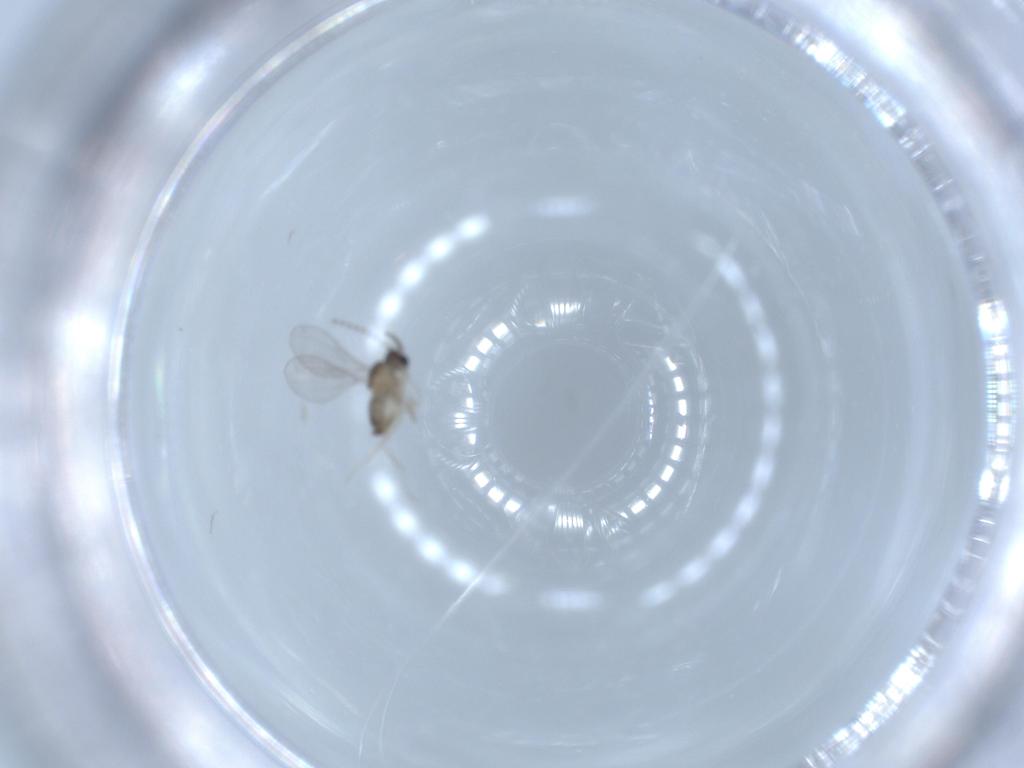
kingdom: Animalia
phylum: Arthropoda
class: Insecta
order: Diptera
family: Cecidomyiidae
